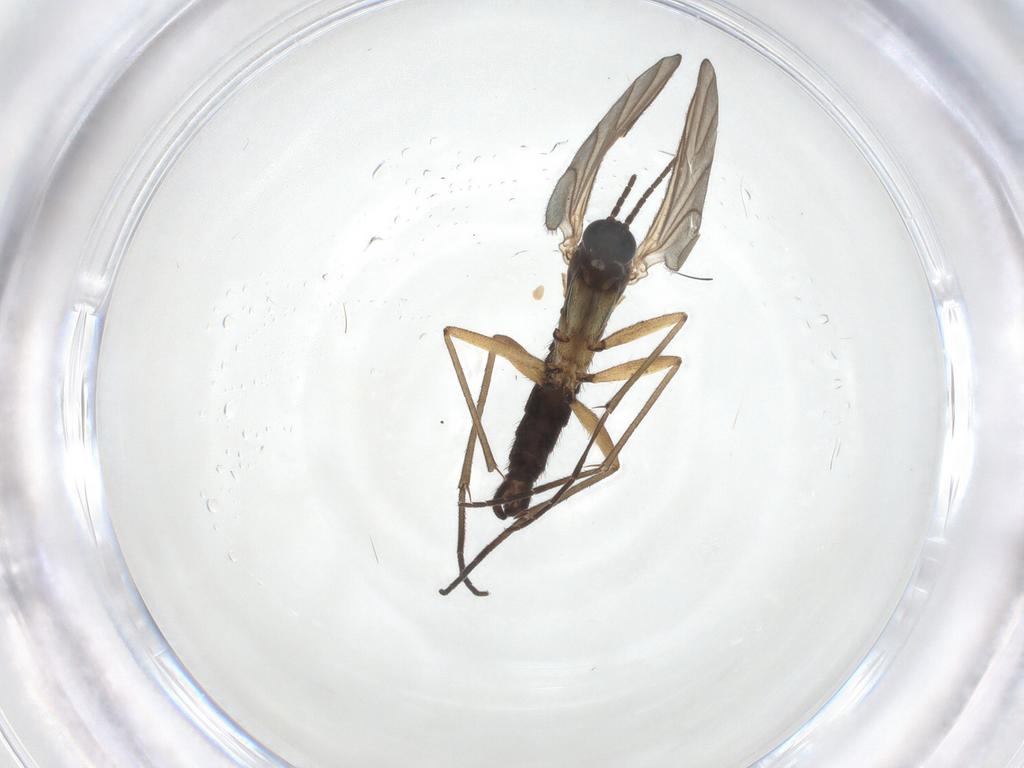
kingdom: Animalia
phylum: Arthropoda
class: Insecta
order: Diptera
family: Sciaridae
